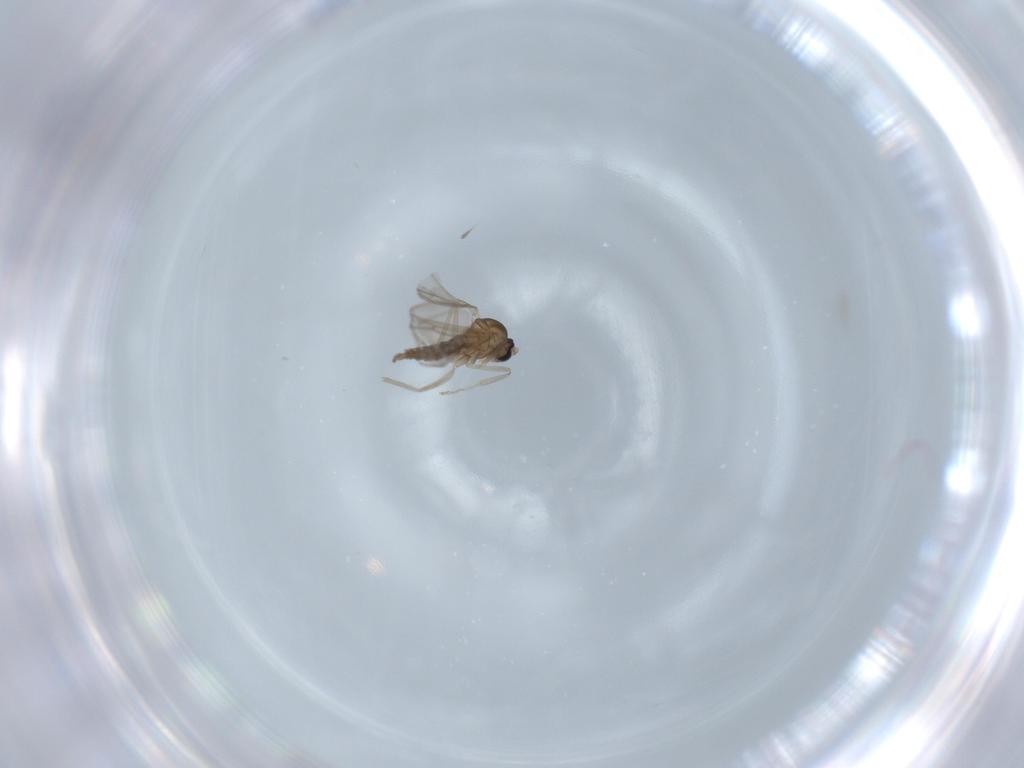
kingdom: Animalia
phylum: Arthropoda
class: Insecta
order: Diptera
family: Cecidomyiidae
